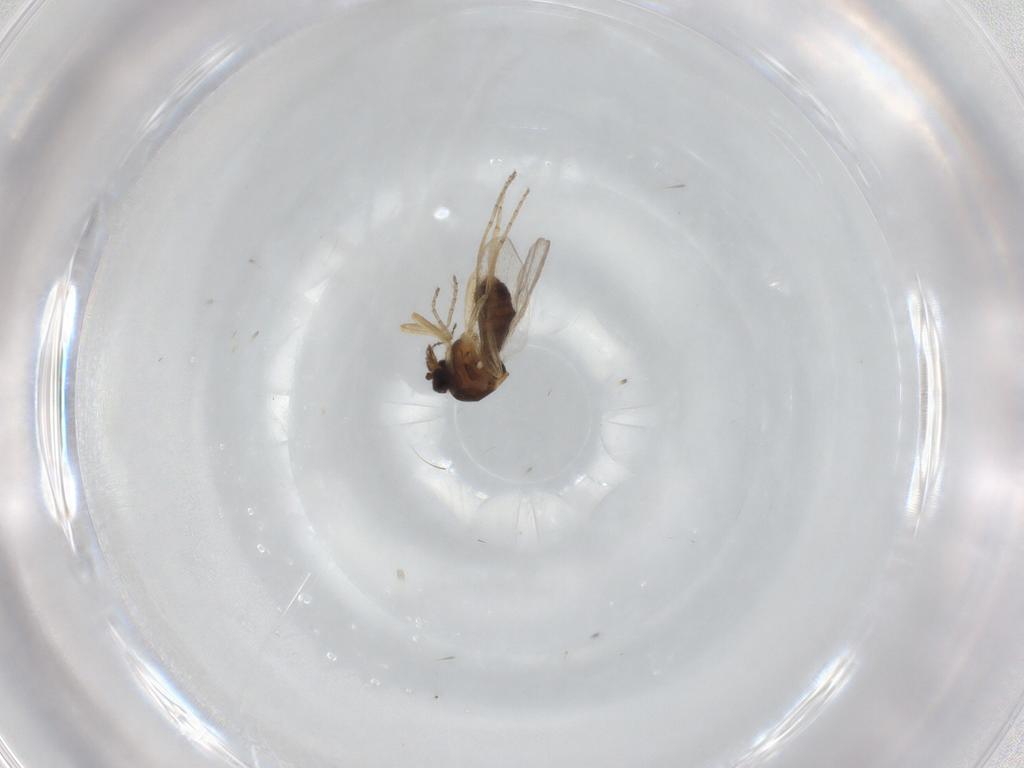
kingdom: Animalia
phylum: Arthropoda
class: Insecta
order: Diptera
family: Ceratopogonidae
